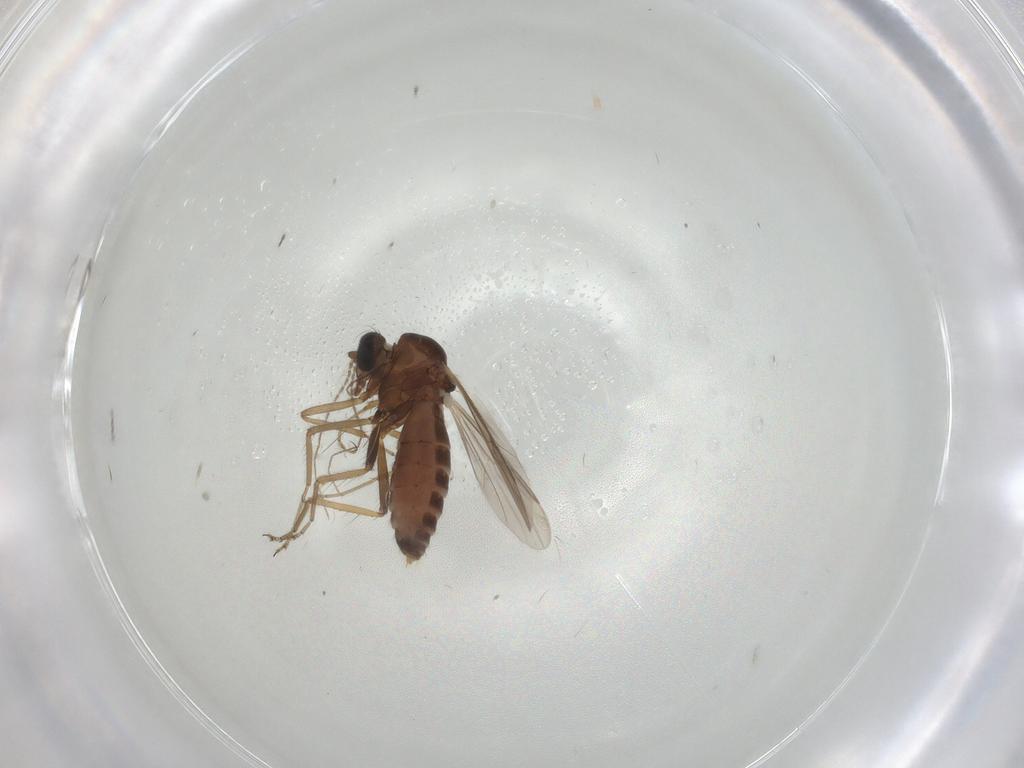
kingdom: Animalia
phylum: Arthropoda
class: Insecta
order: Diptera
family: Ceratopogonidae
